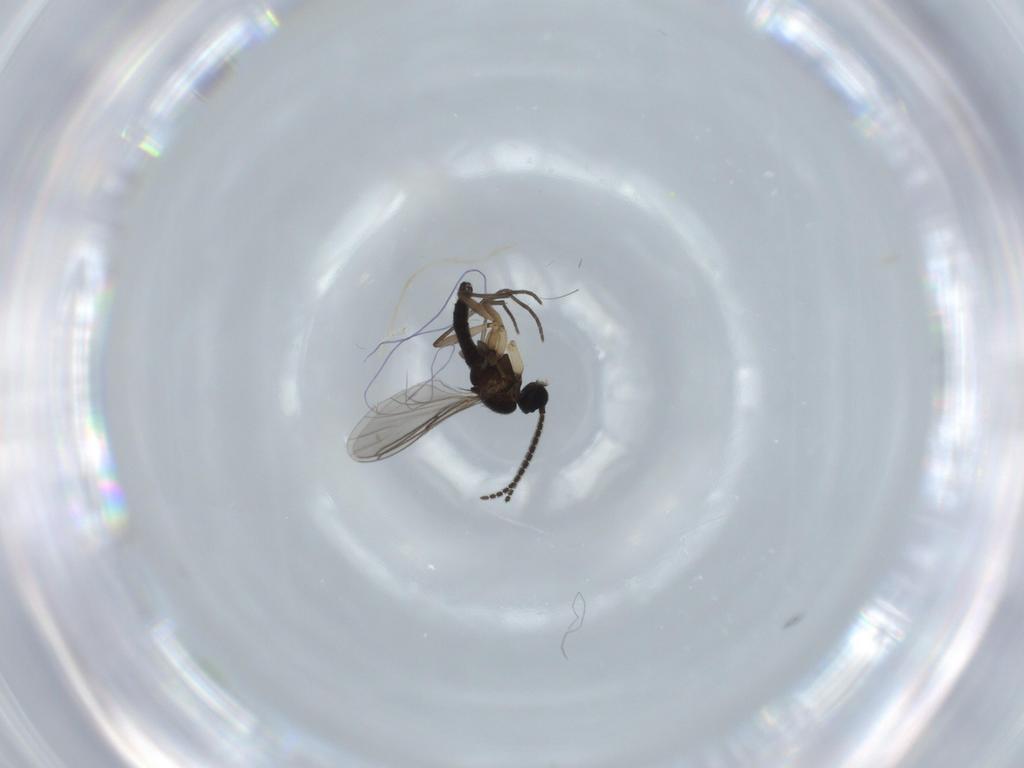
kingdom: Animalia
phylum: Arthropoda
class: Insecta
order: Diptera
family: Sciaridae
